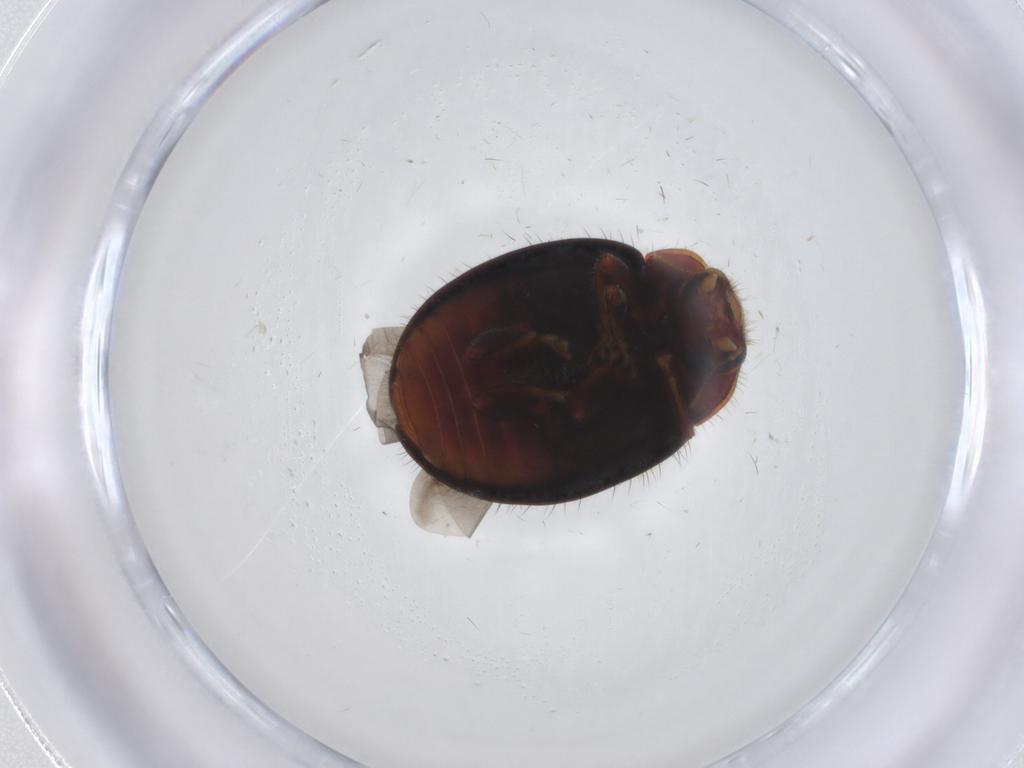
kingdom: Animalia
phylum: Arthropoda
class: Insecta
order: Coleoptera
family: Coccinellidae
